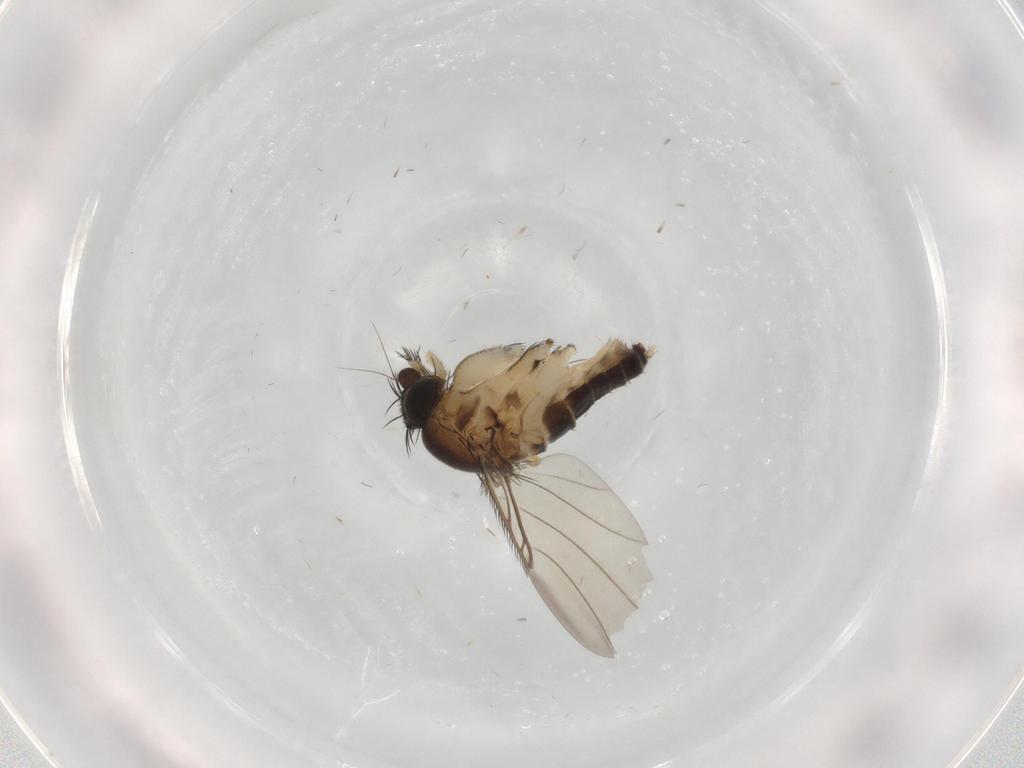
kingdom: Animalia
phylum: Arthropoda
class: Insecta
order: Diptera
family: Phoridae
